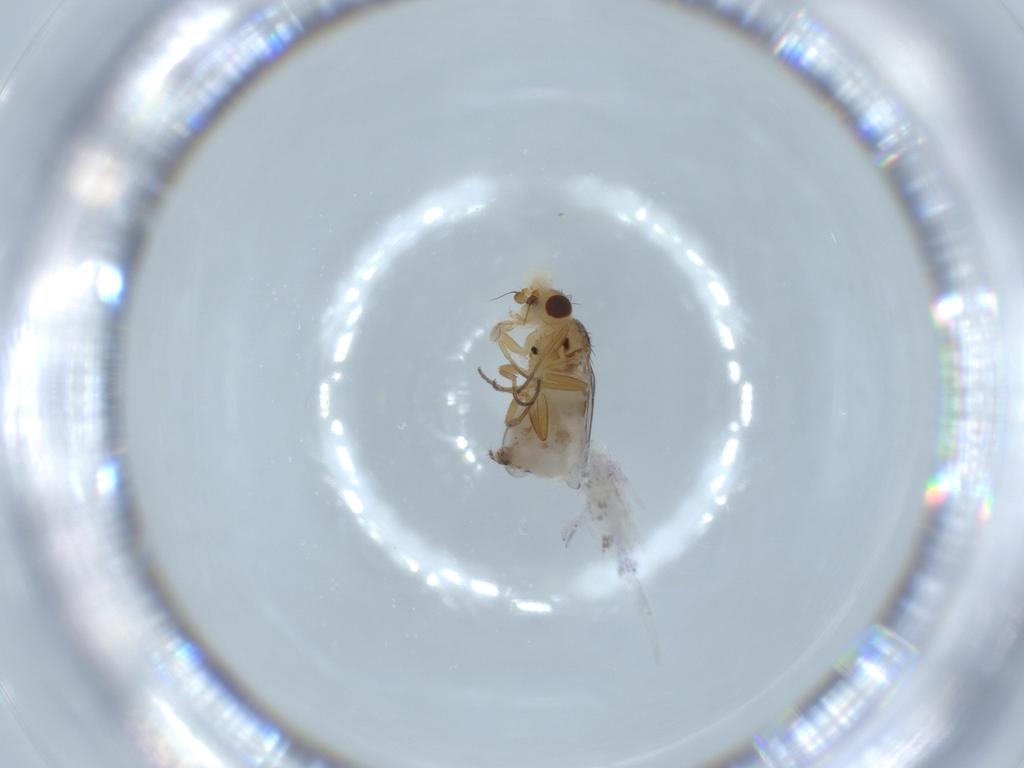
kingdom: Animalia
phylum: Arthropoda
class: Insecta
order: Diptera
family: Chloropidae
